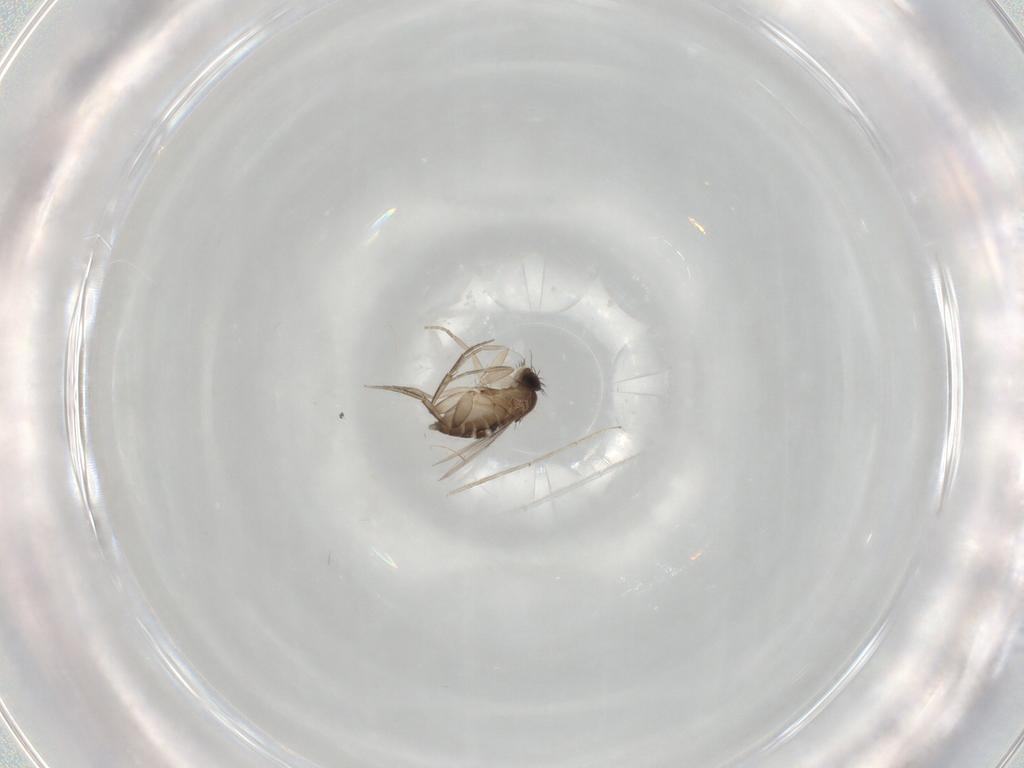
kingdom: Animalia
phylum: Arthropoda
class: Insecta
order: Diptera
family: Phoridae
